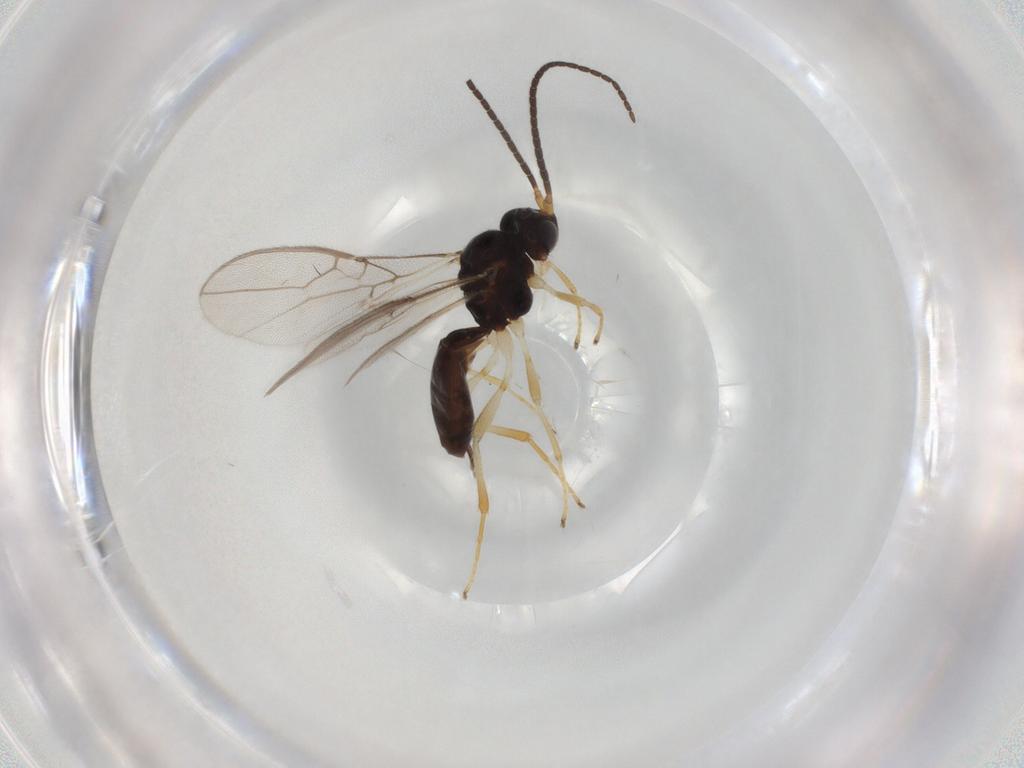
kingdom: Animalia
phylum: Arthropoda
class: Insecta
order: Hymenoptera
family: Braconidae
